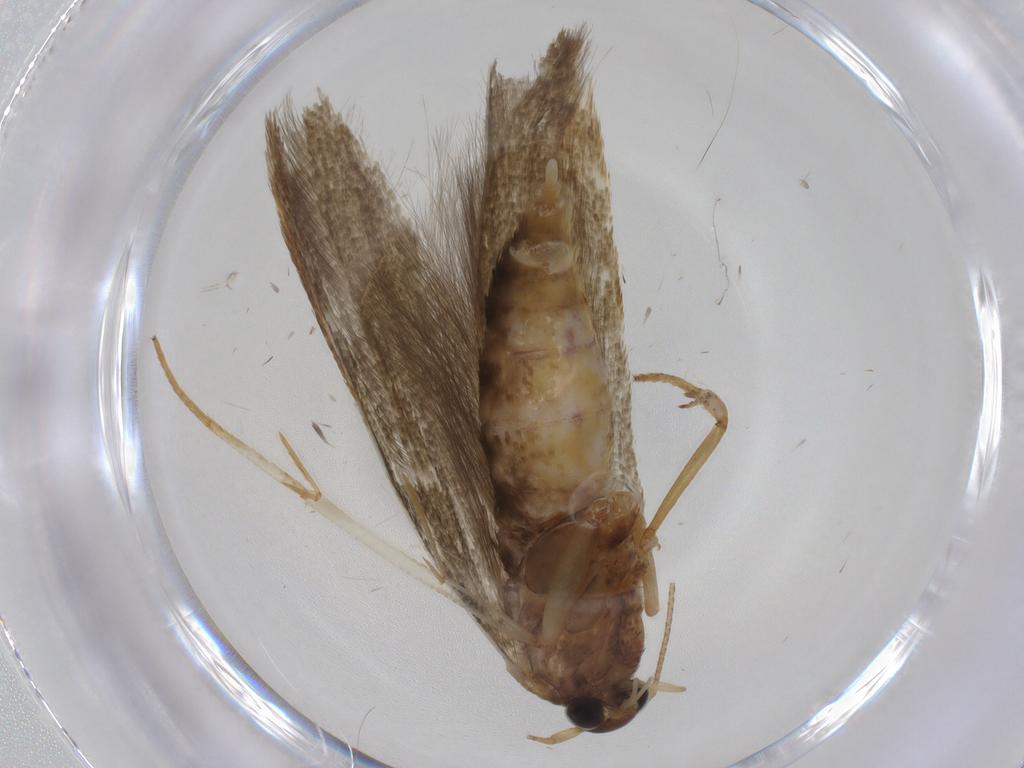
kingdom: Animalia
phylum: Arthropoda
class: Insecta
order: Lepidoptera
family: Blastobasidae
